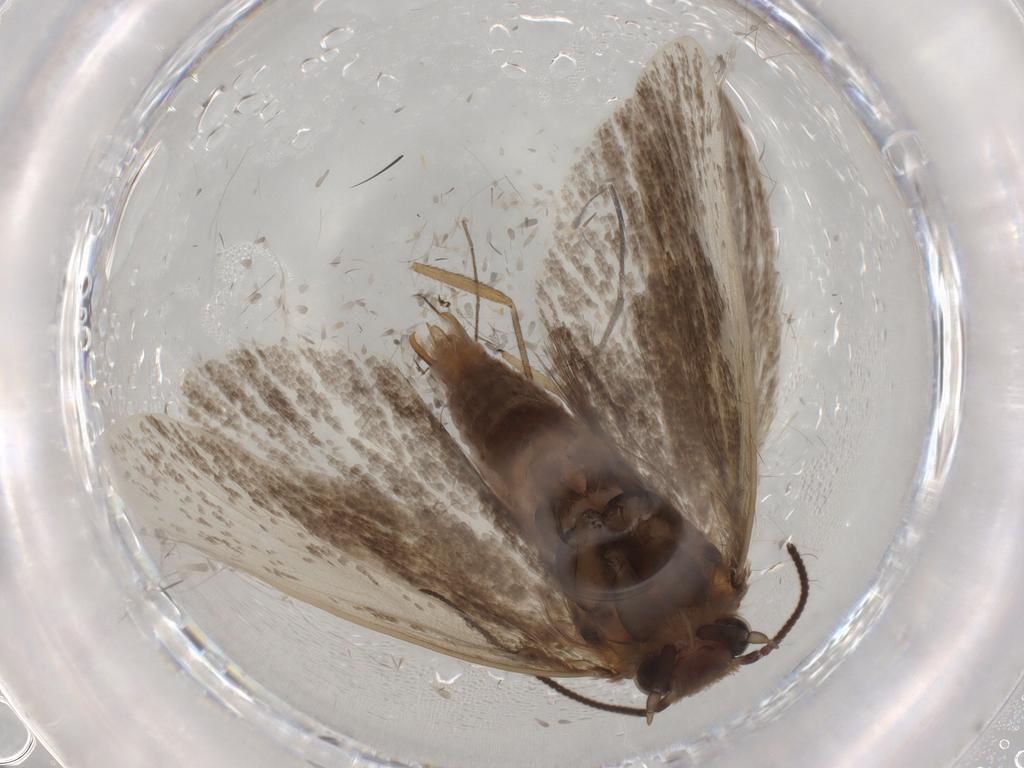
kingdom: Animalia
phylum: Arthropoda
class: Insecta
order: Lepidoptera
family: Tineidae
